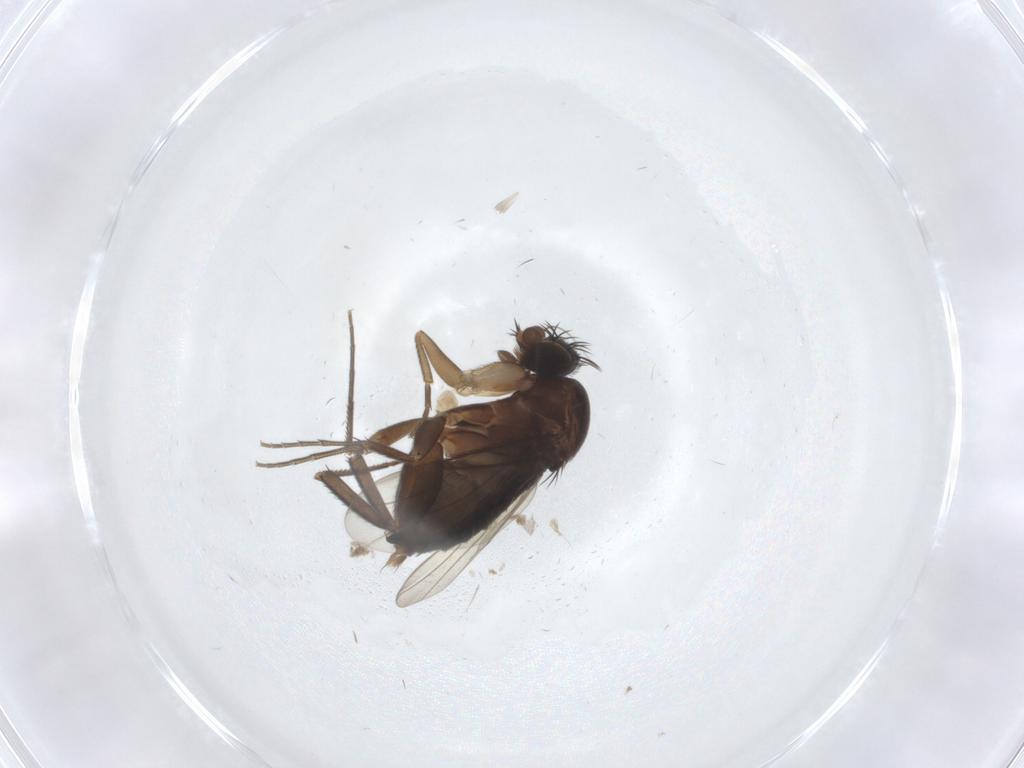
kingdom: Animalia
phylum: Arthropoda
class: Insecta
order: Diptera
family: Phoridae
